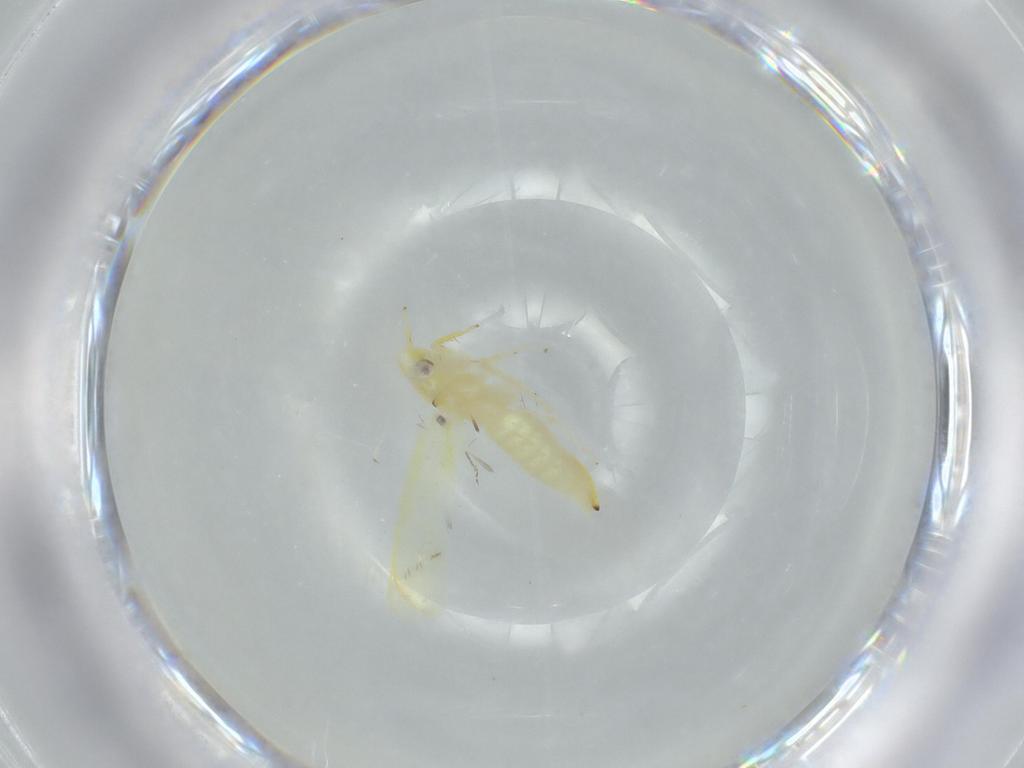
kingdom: Animalia
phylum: Arthropoda
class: Insecta
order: Hemiptera
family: Cicadellidae
